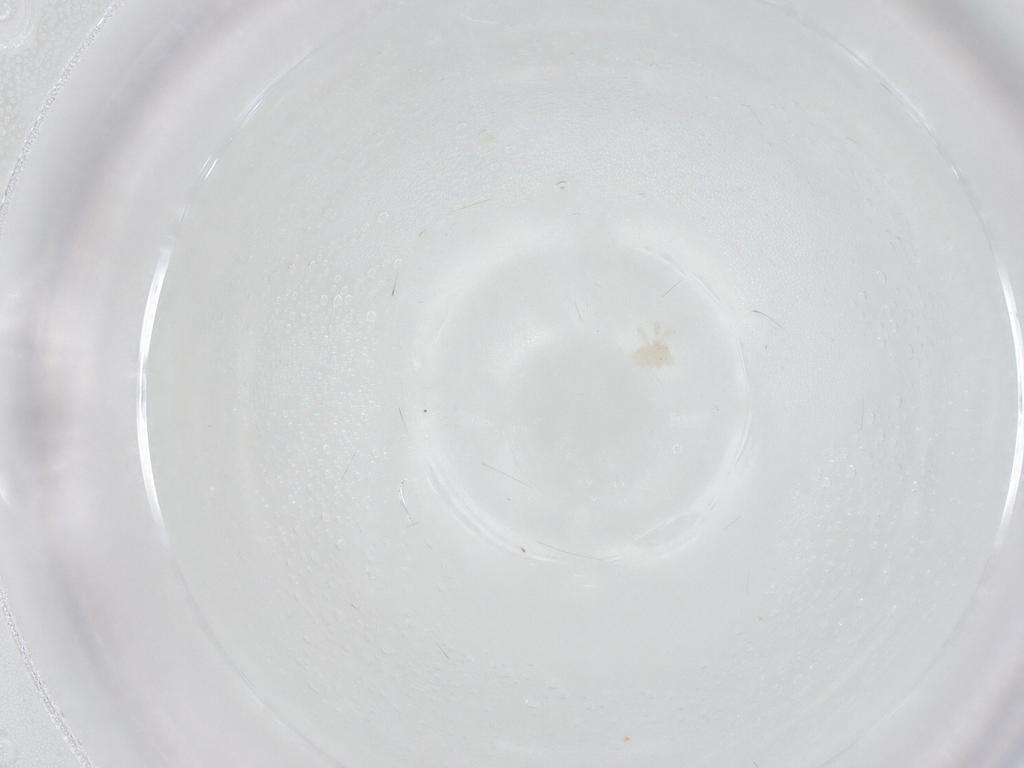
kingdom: Animalia
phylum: Arthropoda
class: Arachnida
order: Trombidiformes
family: Anystidae
